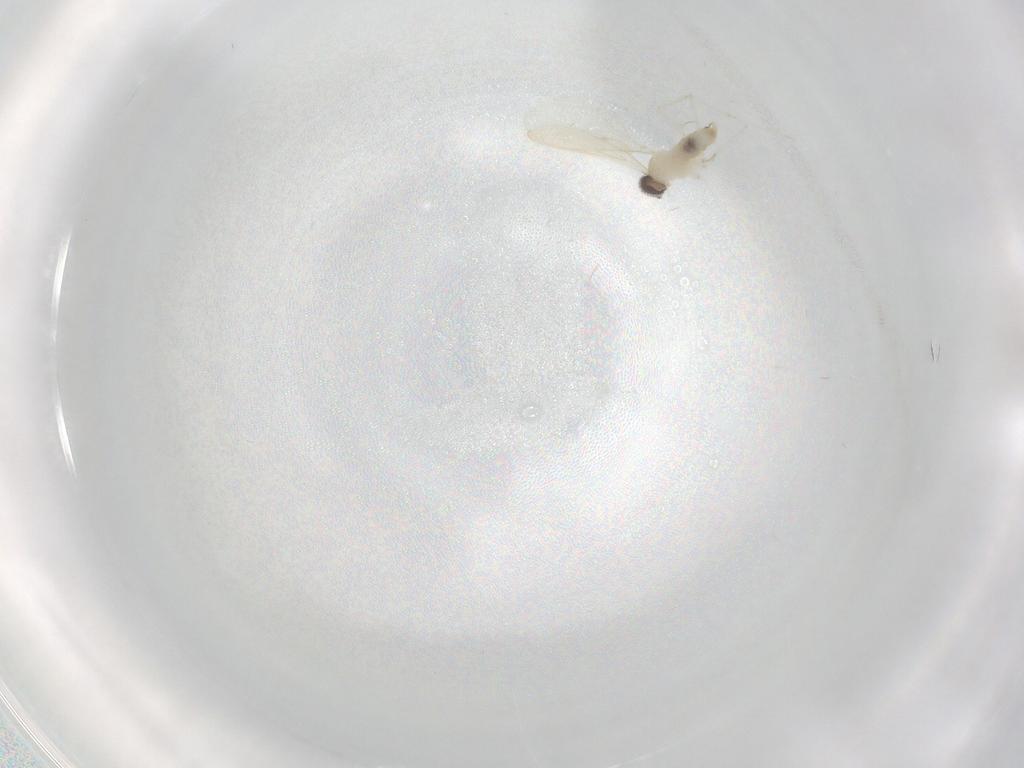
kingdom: Animalia
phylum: Arthropoda
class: Insecta
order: Diptera
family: Cecidomyiidae
